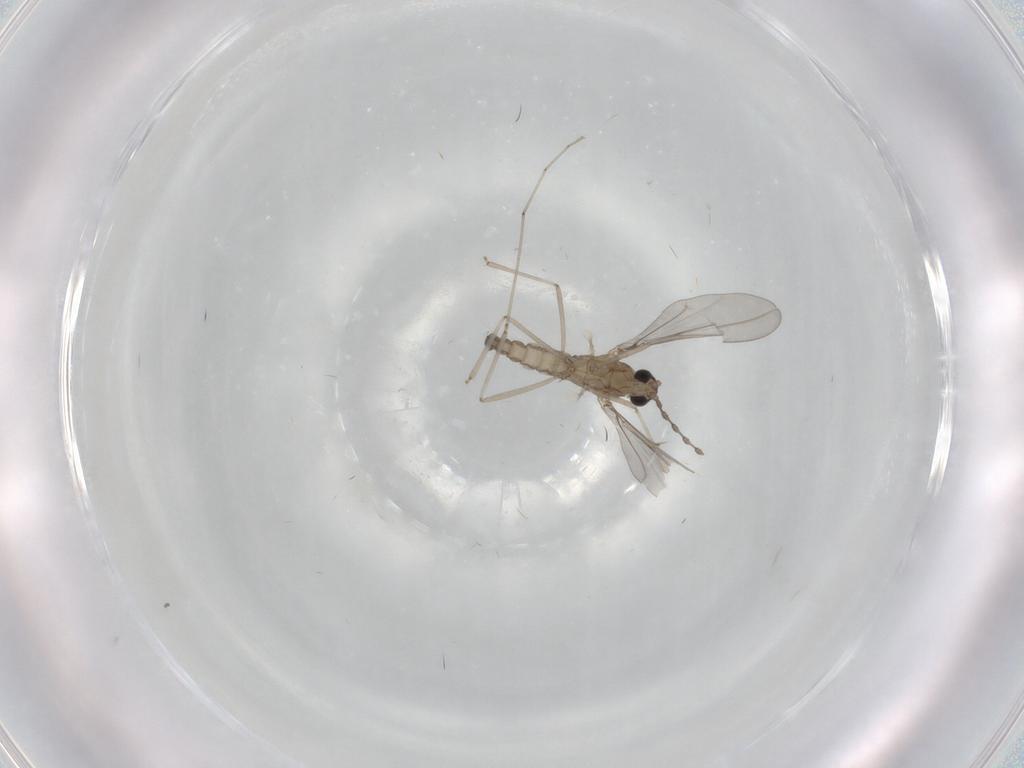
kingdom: Animalia
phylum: Arthropoda
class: Insecta
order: Diptera
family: Cecidomyiidae
